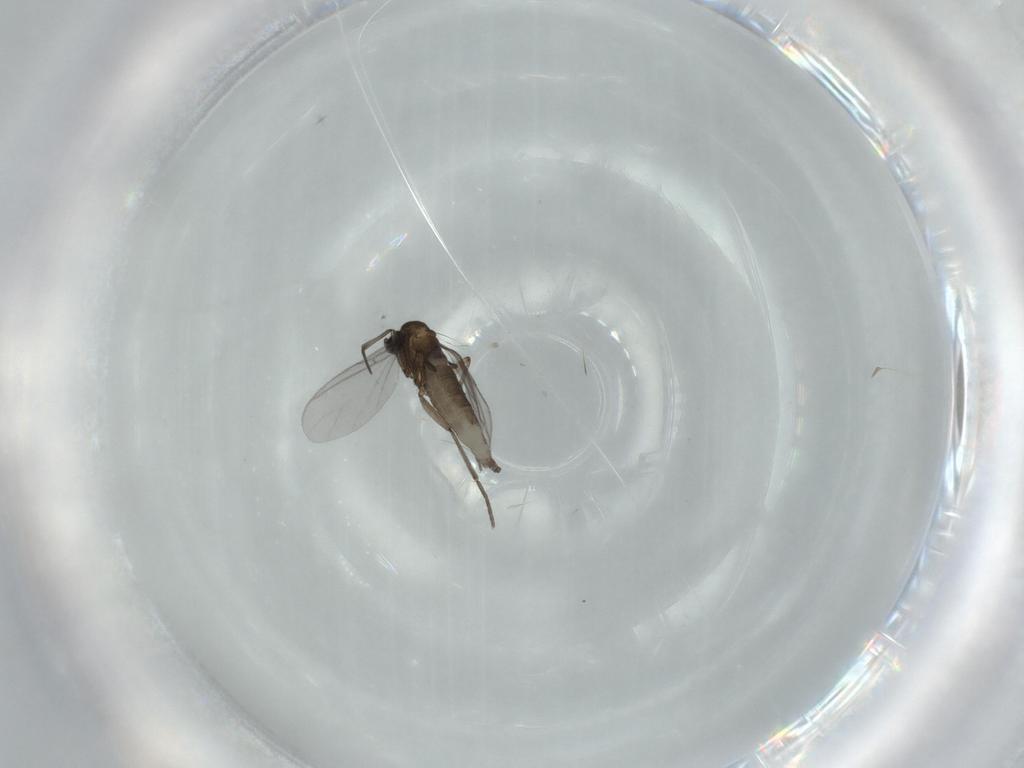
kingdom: Animalia
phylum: Arthropoda
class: Insecta
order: Diptera
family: Sciaridae
